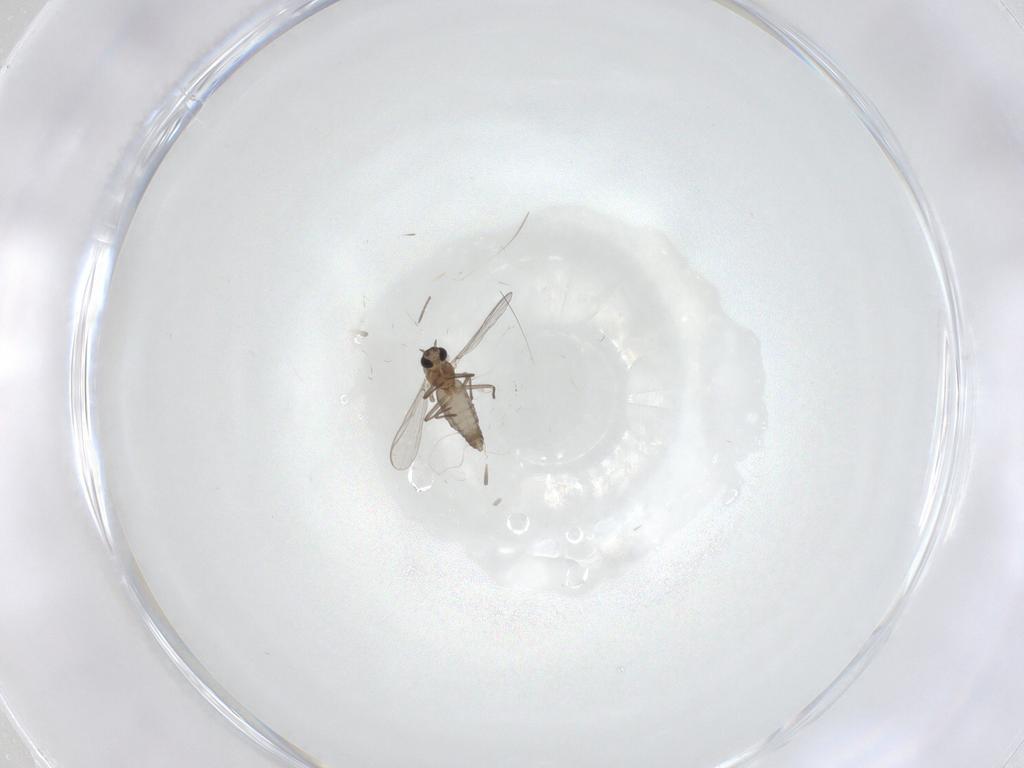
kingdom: Animalia
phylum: Arthropoda
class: Insecta
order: Diptera
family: Chironomidae
